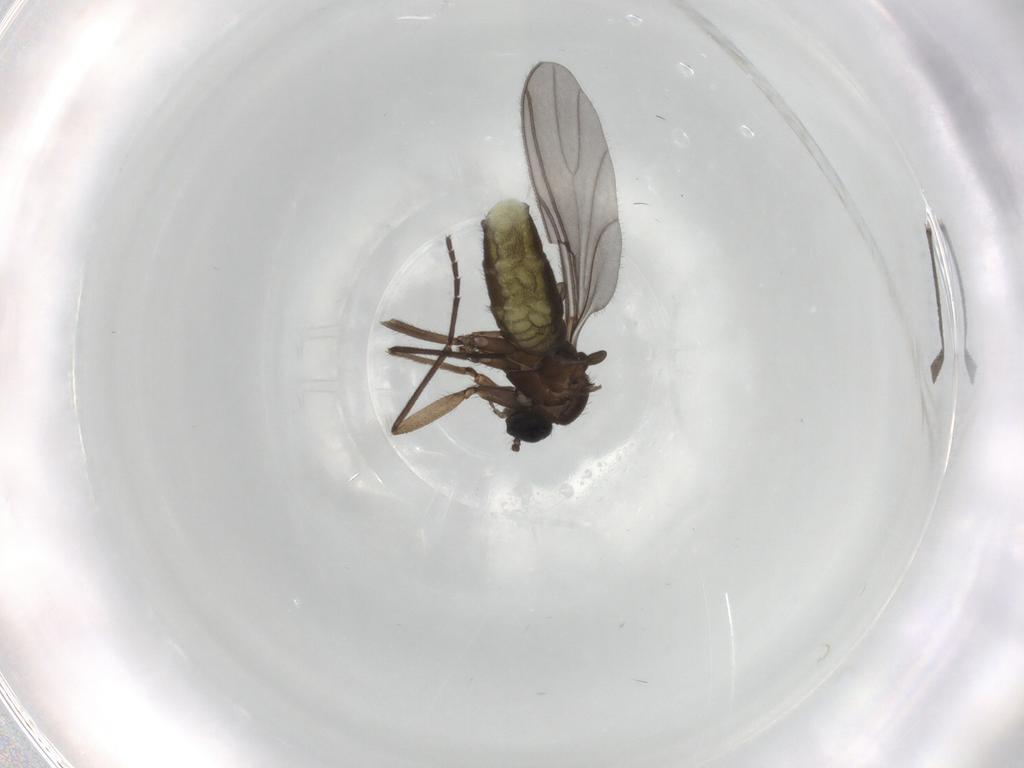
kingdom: Animalia
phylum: Arthropoda
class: Insecta
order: Diptera
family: Sciaridae
